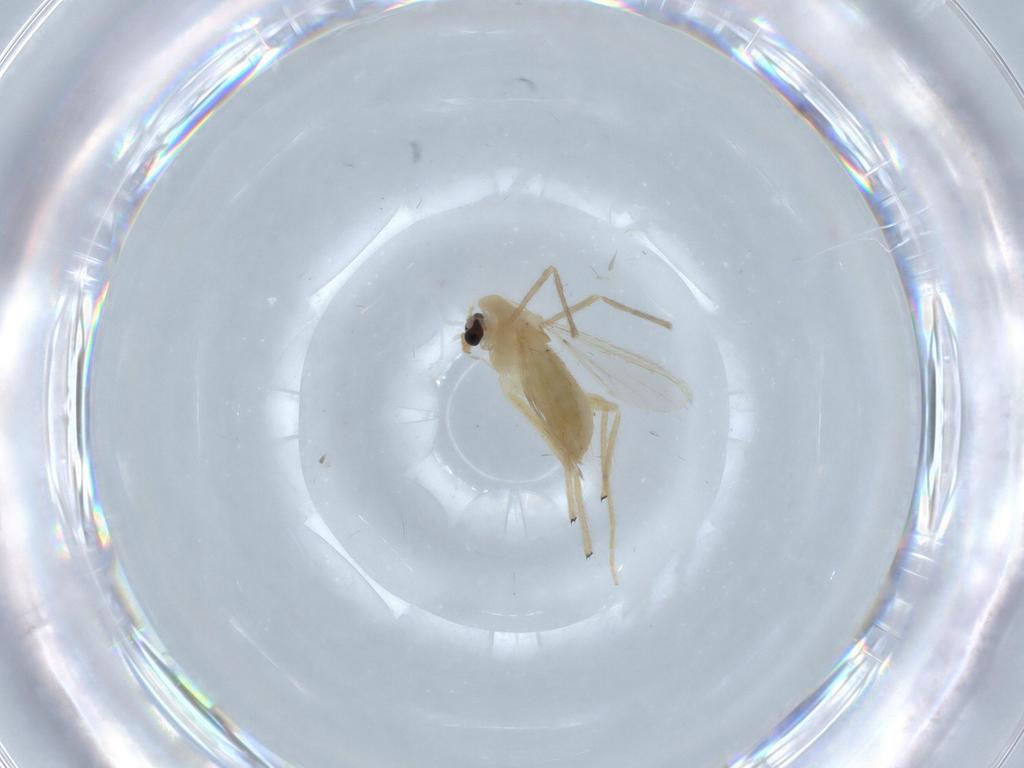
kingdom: Animalia
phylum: Arthropoda
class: Insecta
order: Diptera
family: Chironomidae
